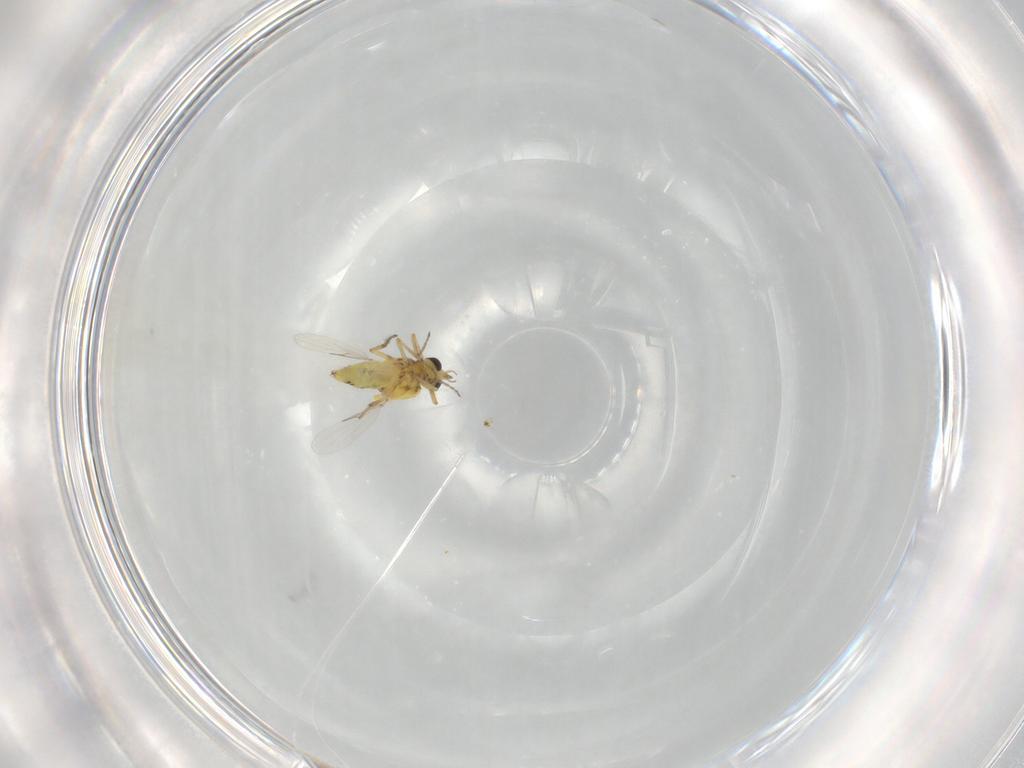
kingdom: Animalia
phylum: Arthropoda
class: Insecta
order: Diptera
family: Ceratopogonidae
